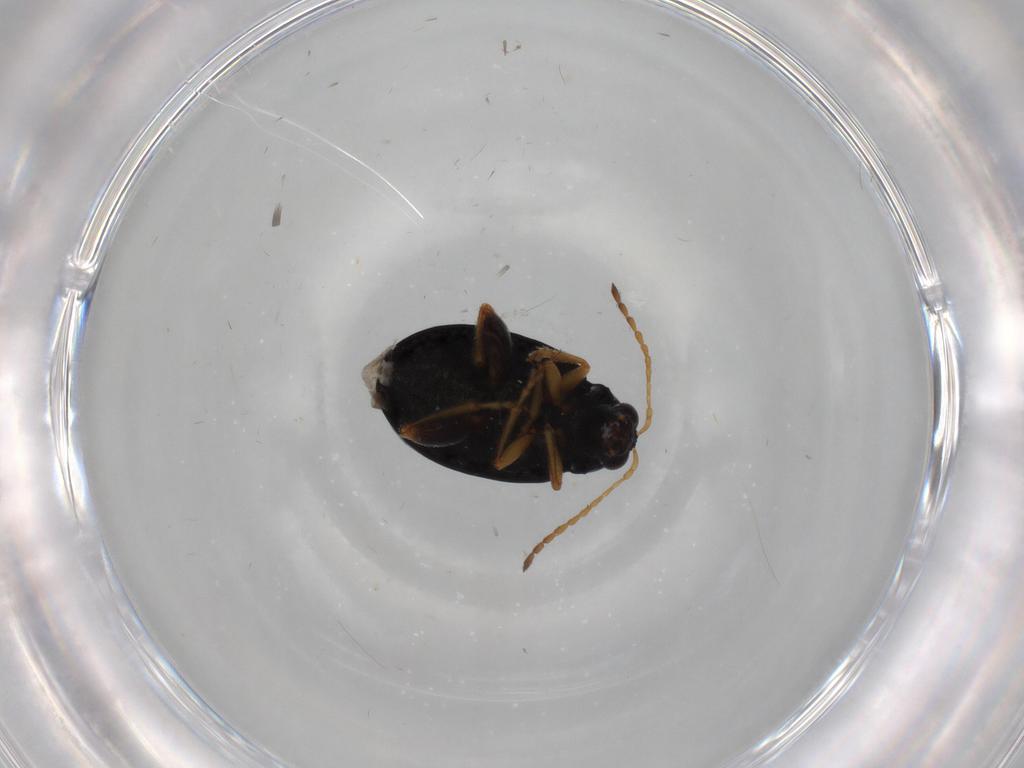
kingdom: Animalia
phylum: Arthropoda
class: Insecta
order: Coleoptera
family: Chrysomelidae
